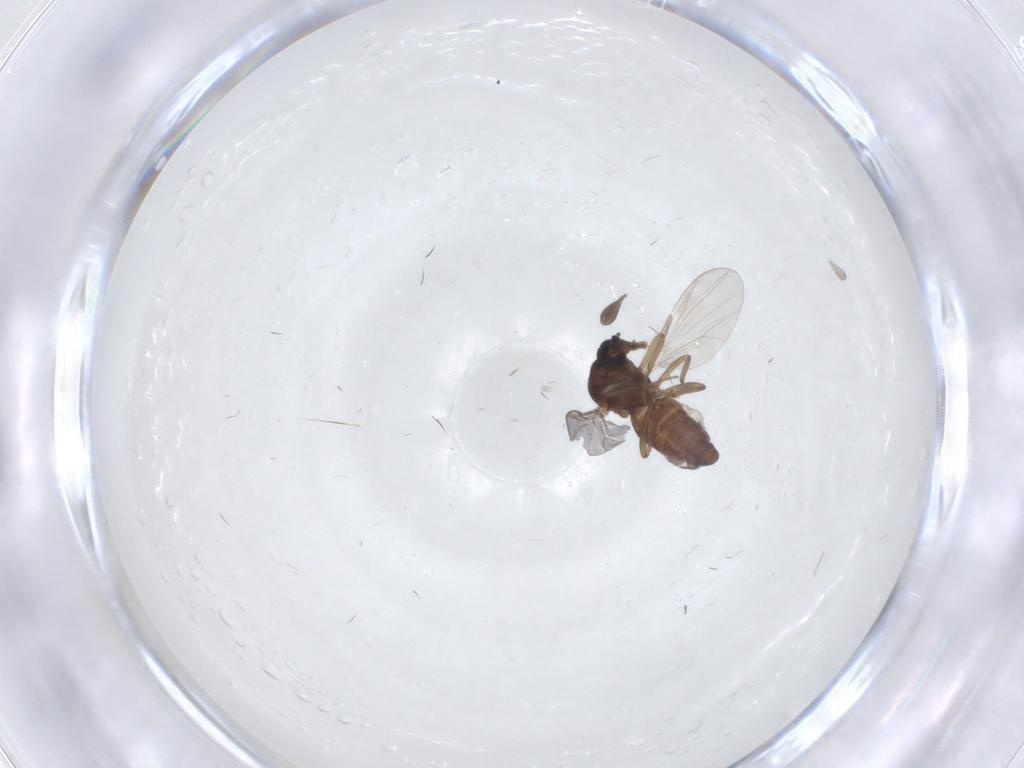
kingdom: Animalia
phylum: Arthropoda
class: Insecta
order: Diptera
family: Ceratopogonidae
